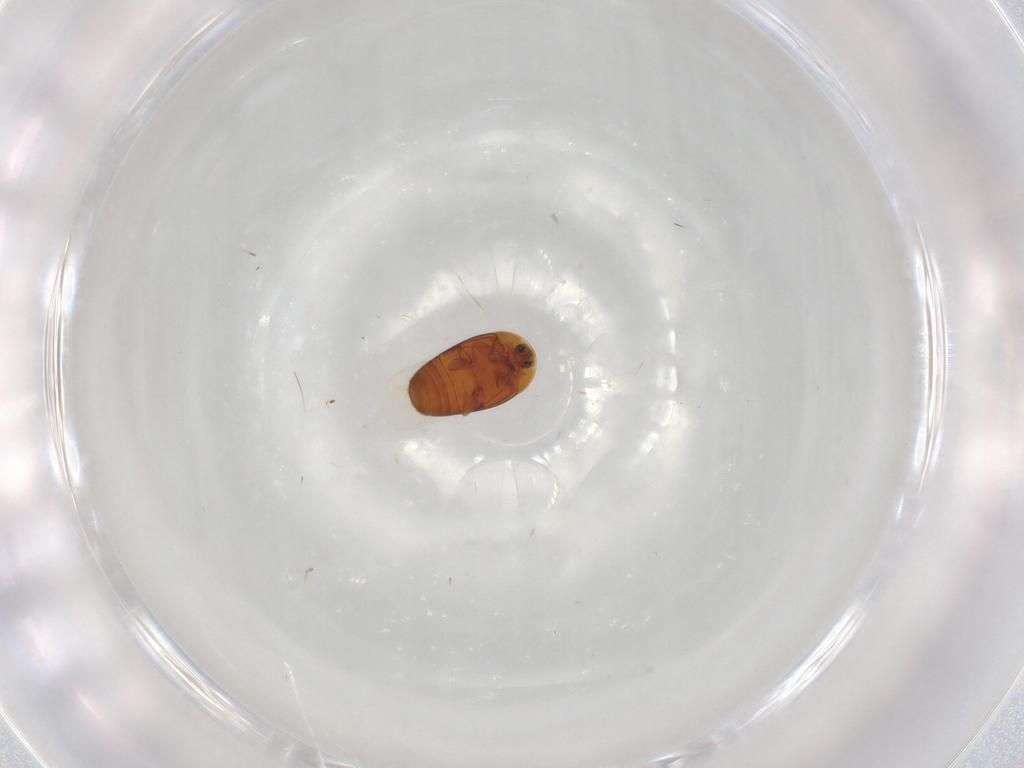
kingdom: Animalia
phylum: Arthropoda
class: Insecta
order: Coleoptera
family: Corylophidae
